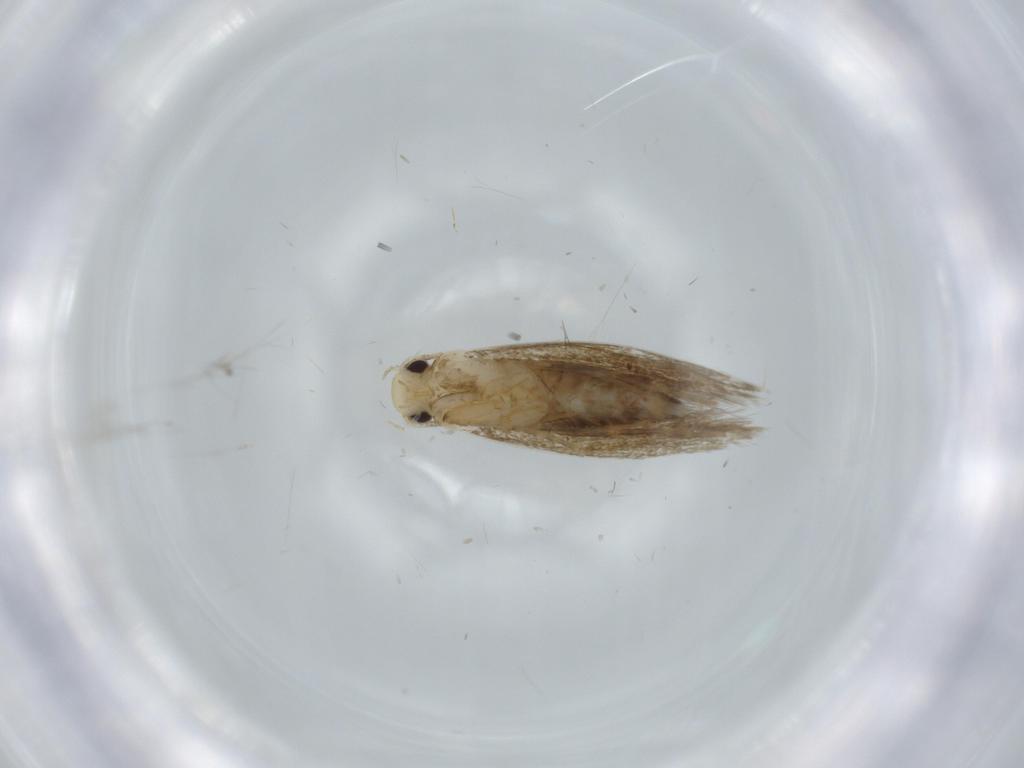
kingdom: Animalia
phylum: Arthropoda
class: Insecta
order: Lepidoptera
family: Tineidae
